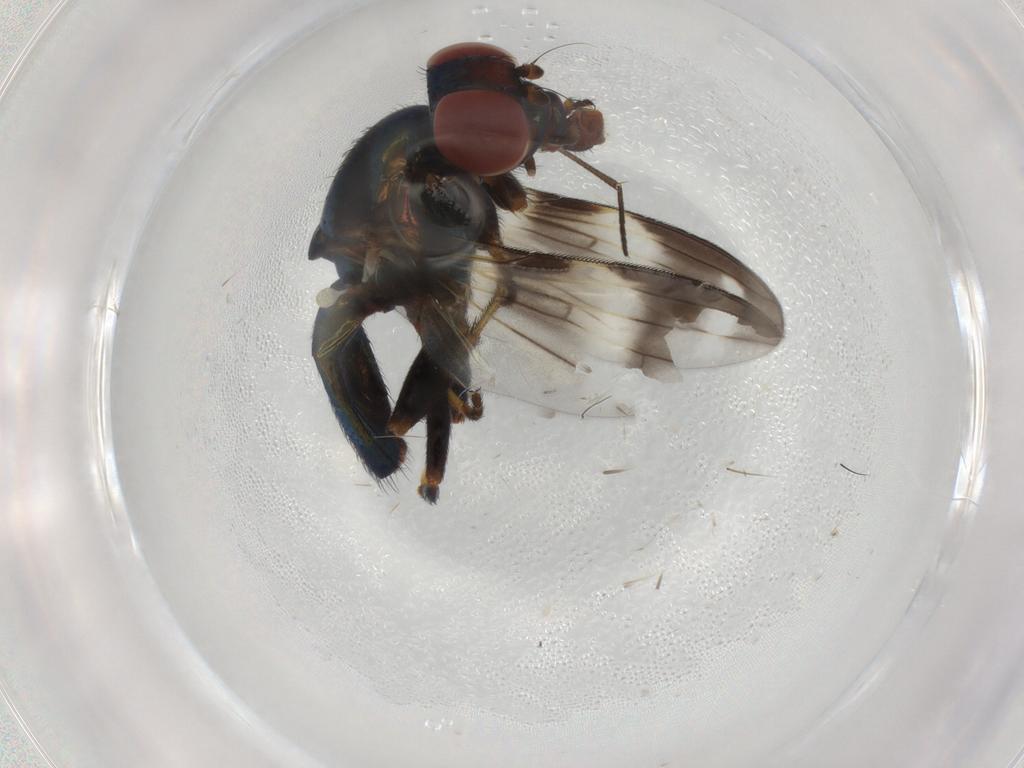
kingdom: Animalia
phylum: Arthropoda
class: Insecta
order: Diptera
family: Ulidiidae
